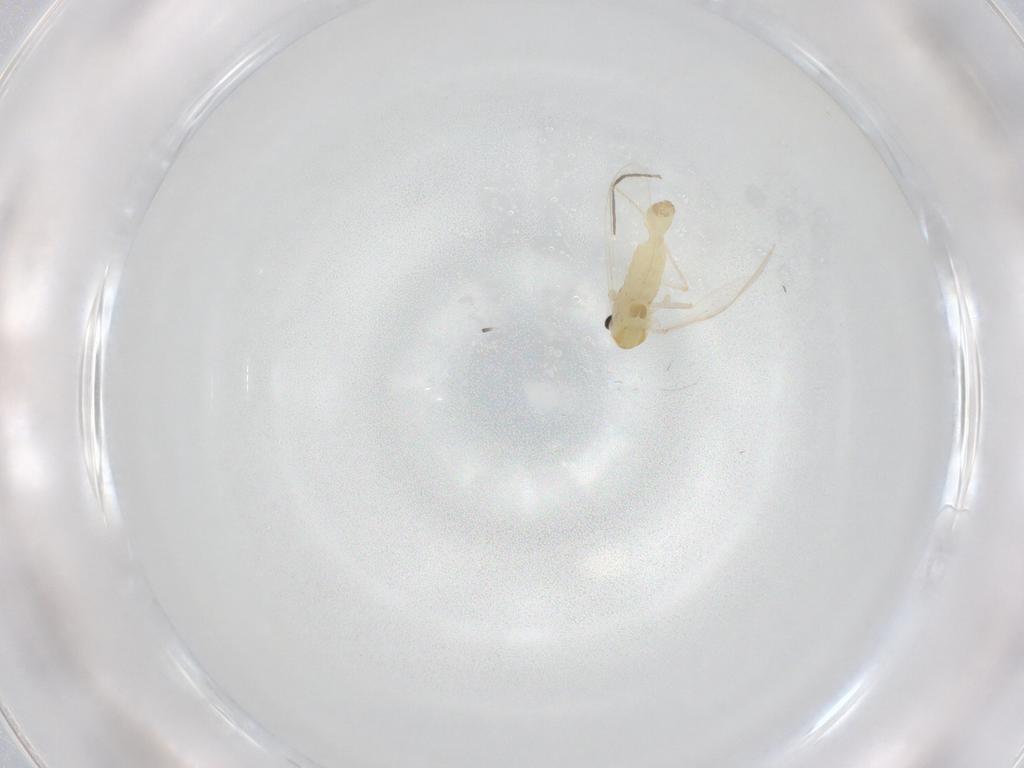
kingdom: Animalia
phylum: Arthropoda
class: Insecta
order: Diptera
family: Chironomidae
